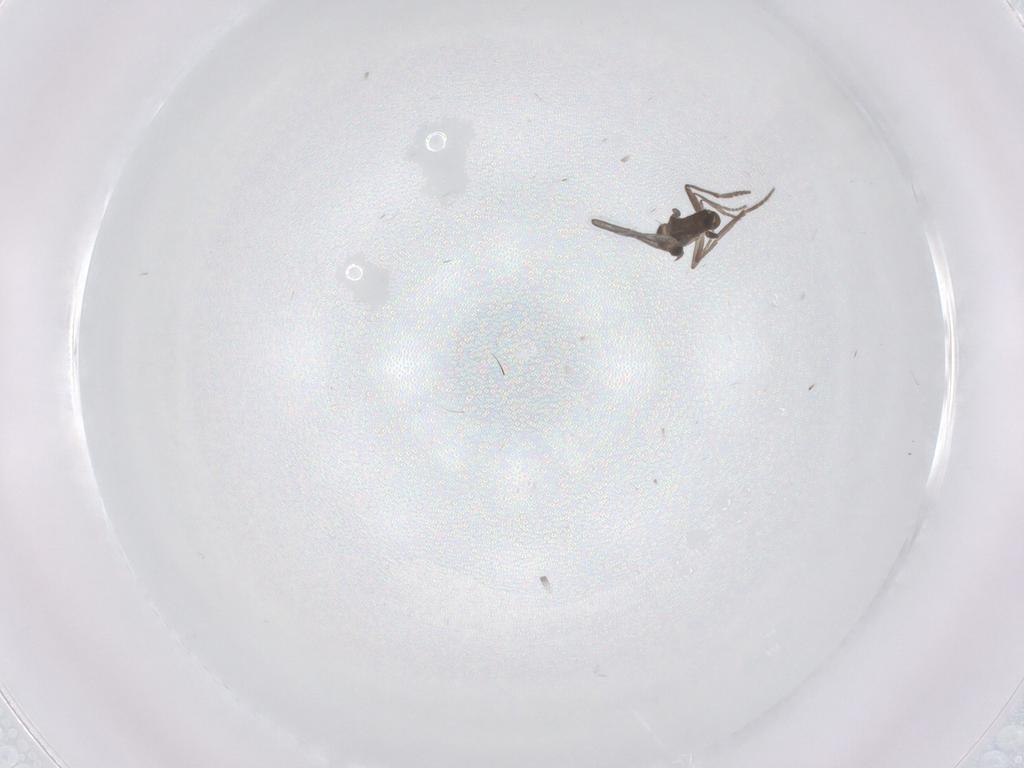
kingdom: Animalia
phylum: Arthropoda
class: Insecta
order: Diptera
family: Phoridae
